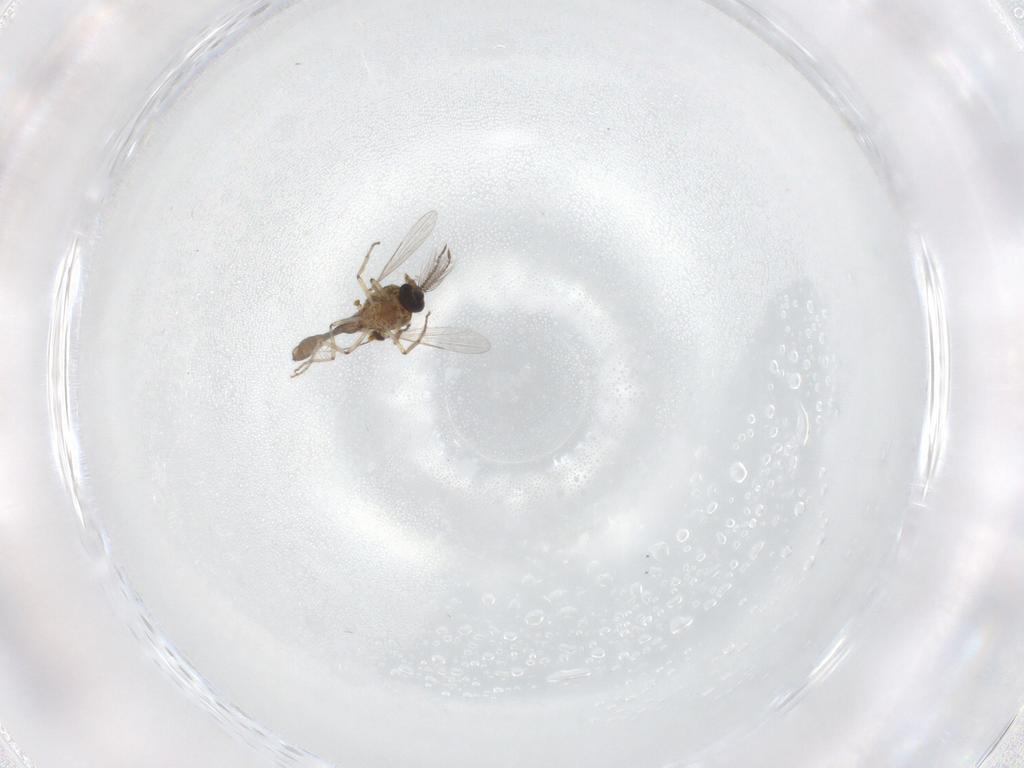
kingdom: Animalia
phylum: Arthropoda
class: Insecta
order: Diptera
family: Ceratopogonidae
